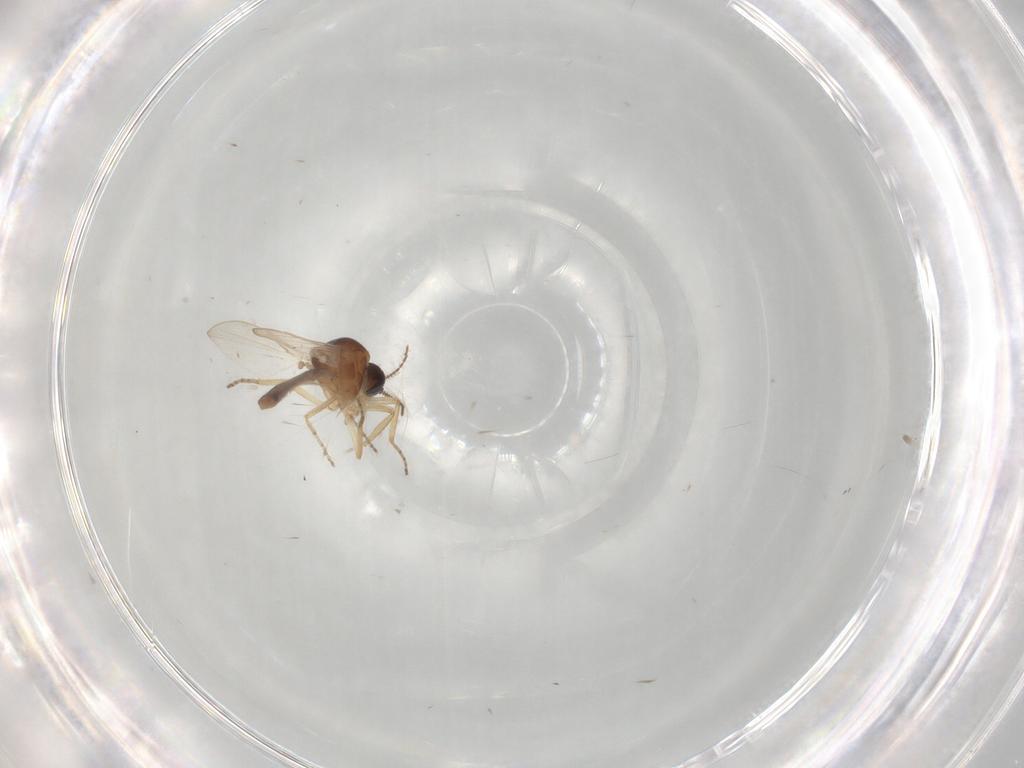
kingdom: Animalia
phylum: Arthropoda
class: Insecta
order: Diptera
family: Ceratopogonidae
